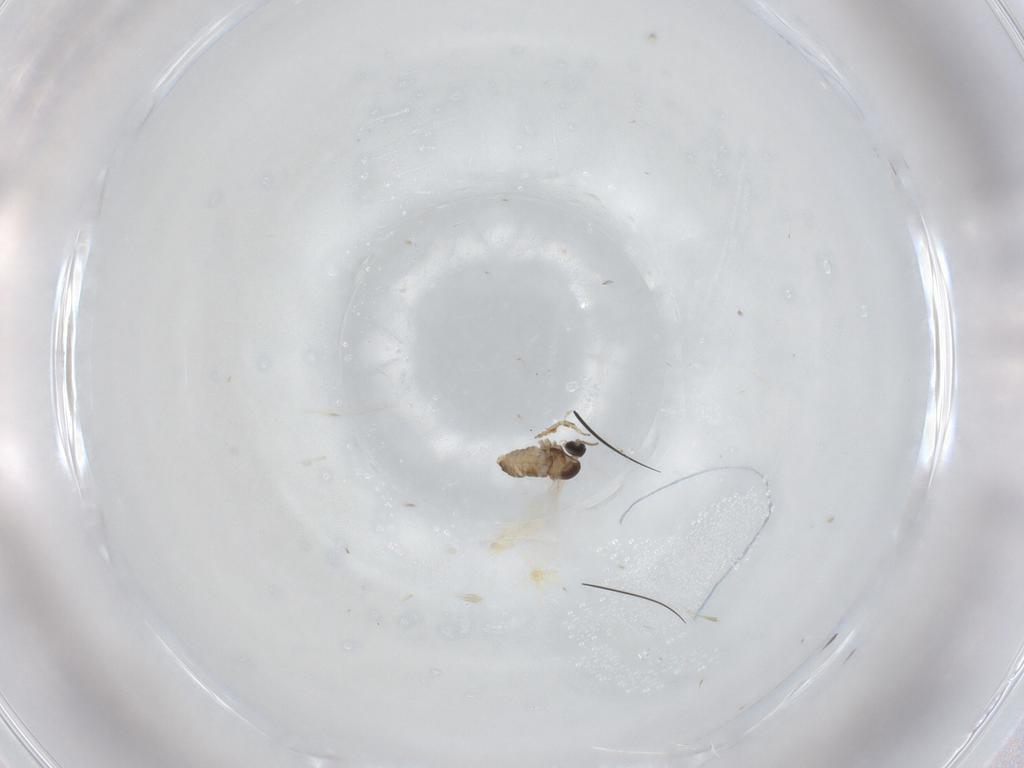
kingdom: Animalia
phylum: Arthropoda
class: Insecta
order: Diptera
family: Cecidomyiidae
